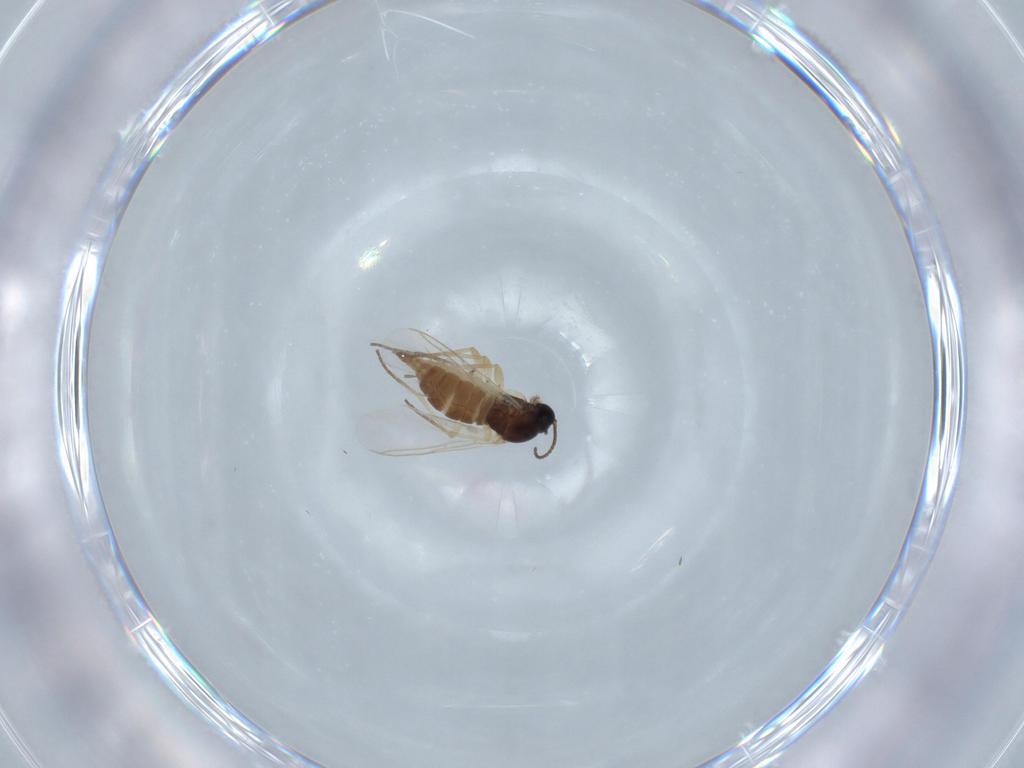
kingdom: Animalia
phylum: Arthropoda
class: Insecta
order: Diptera
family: Sciaridae
